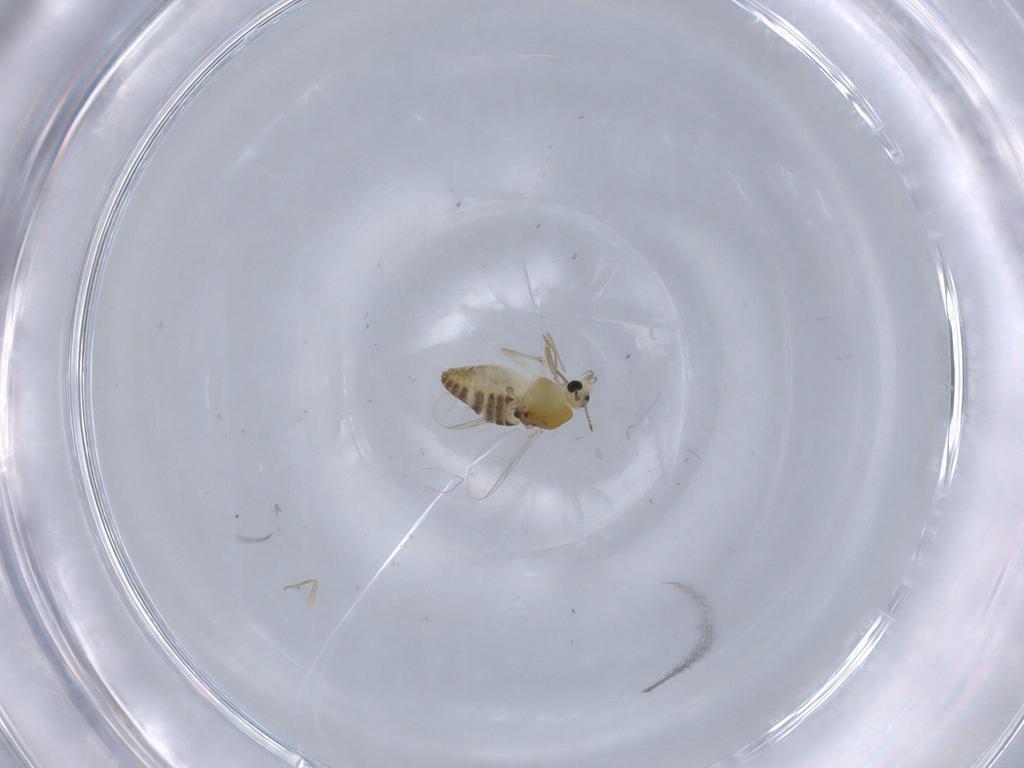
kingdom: Animalia
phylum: Arthropoda
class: Insecta
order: Diptera
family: Chironomidae
